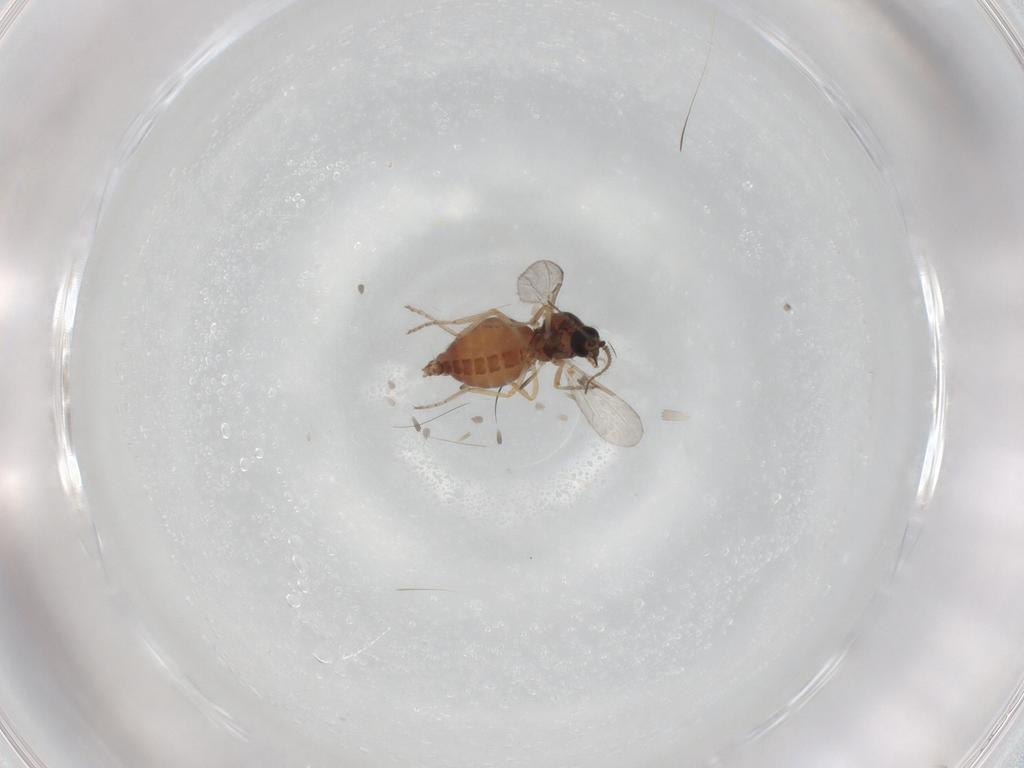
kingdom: Animalia
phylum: Arthropoda
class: Insecta
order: Diptera
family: Ceratopogonidae
